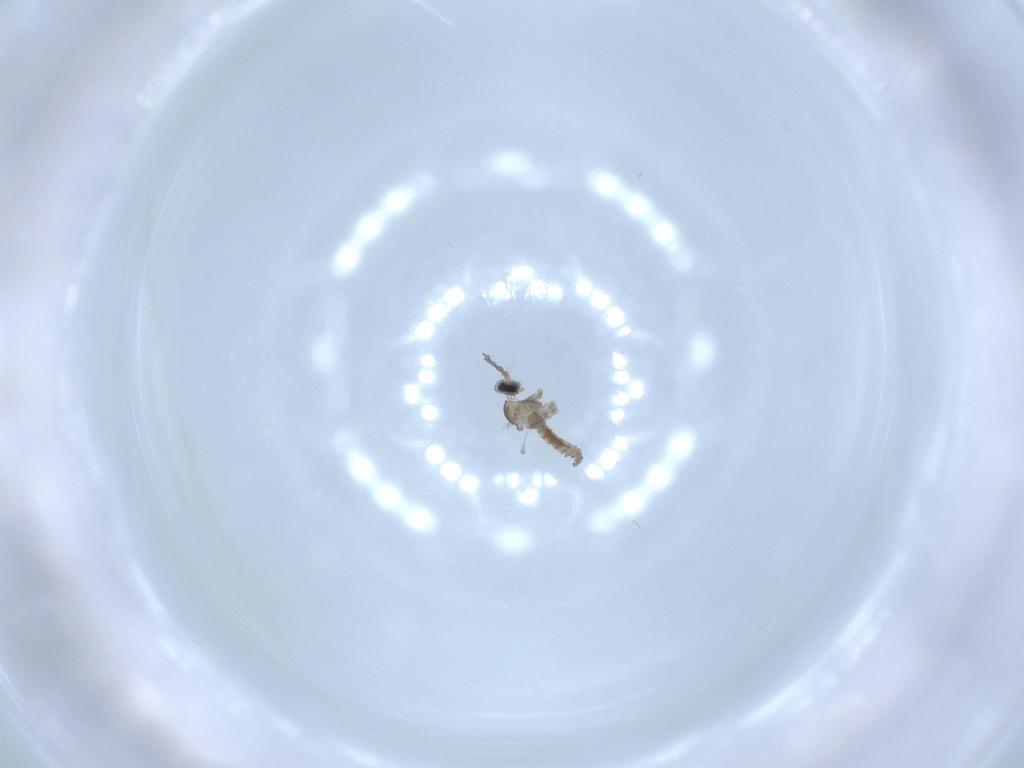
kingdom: Animalia
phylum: Arthropoda
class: Insecta
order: Diptera
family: Cecidomyiidae
